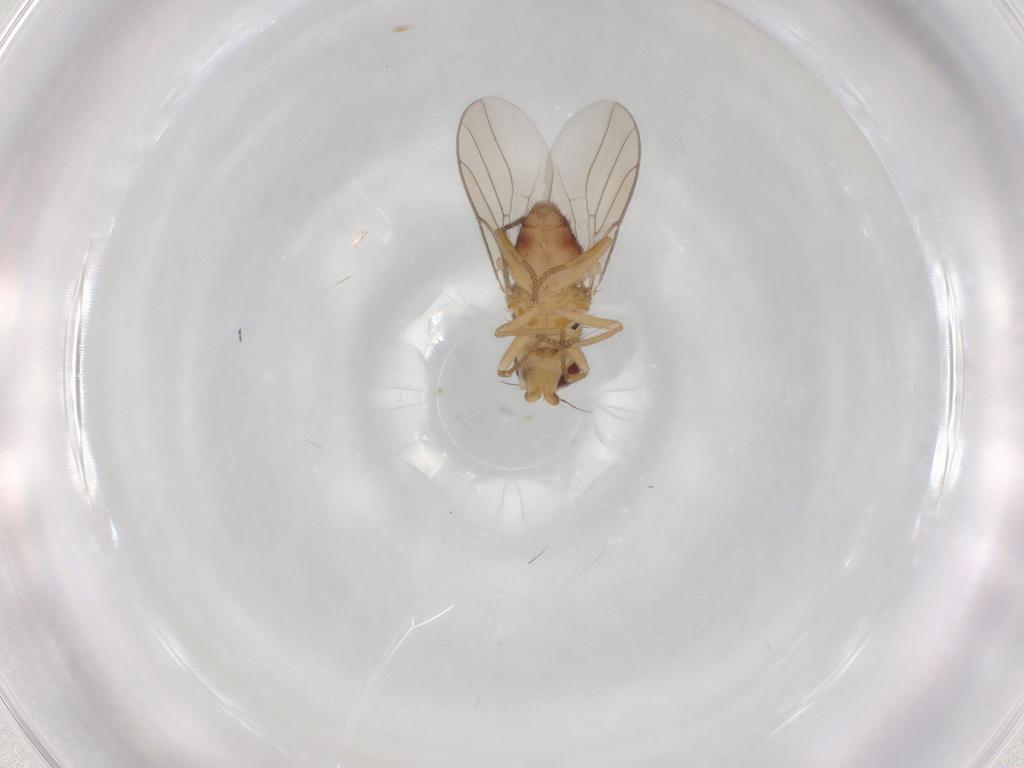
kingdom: Animalia
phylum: Arthropoda
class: Insecta
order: Diptera
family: Chloropidae
